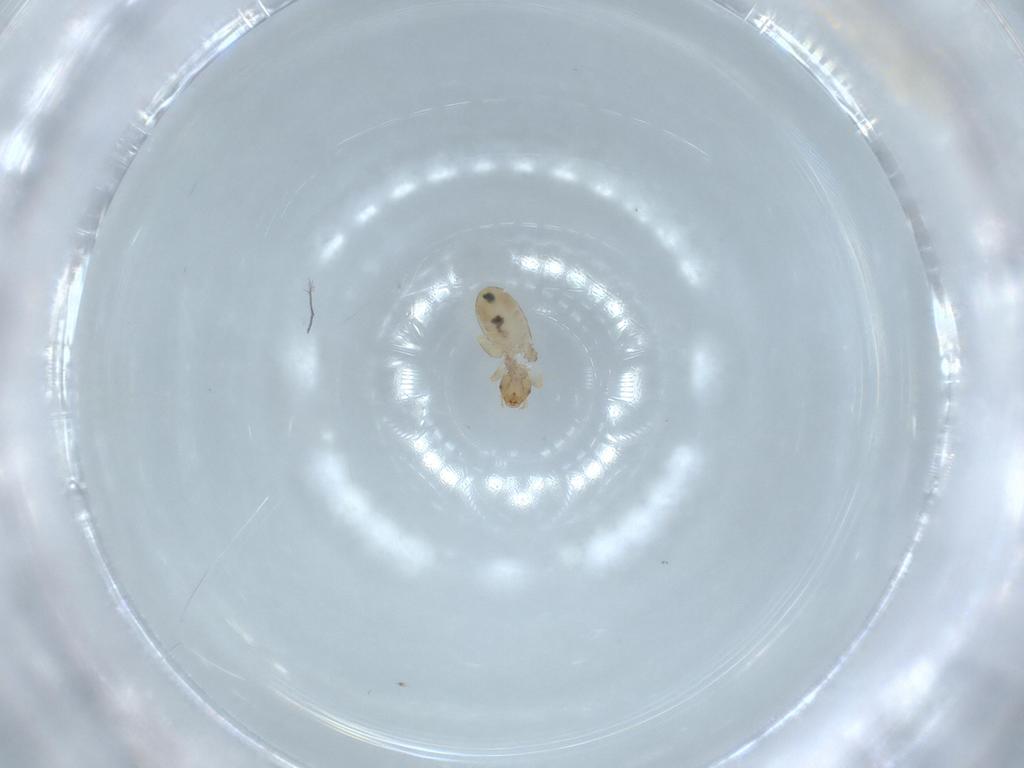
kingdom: Animalia
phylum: Arthropoda
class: Insecta
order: Psocodea
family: Liposcelididae
